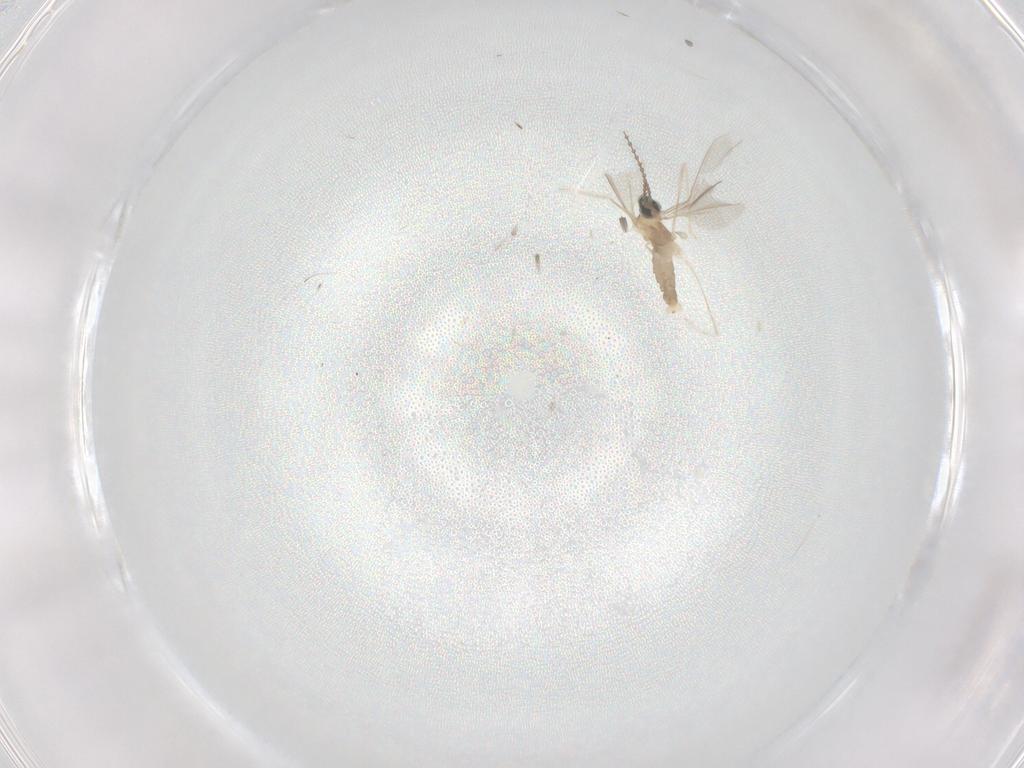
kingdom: Animalia
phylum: Arthropoda
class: Insecta
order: Diptera
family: Cecidomyiidae
